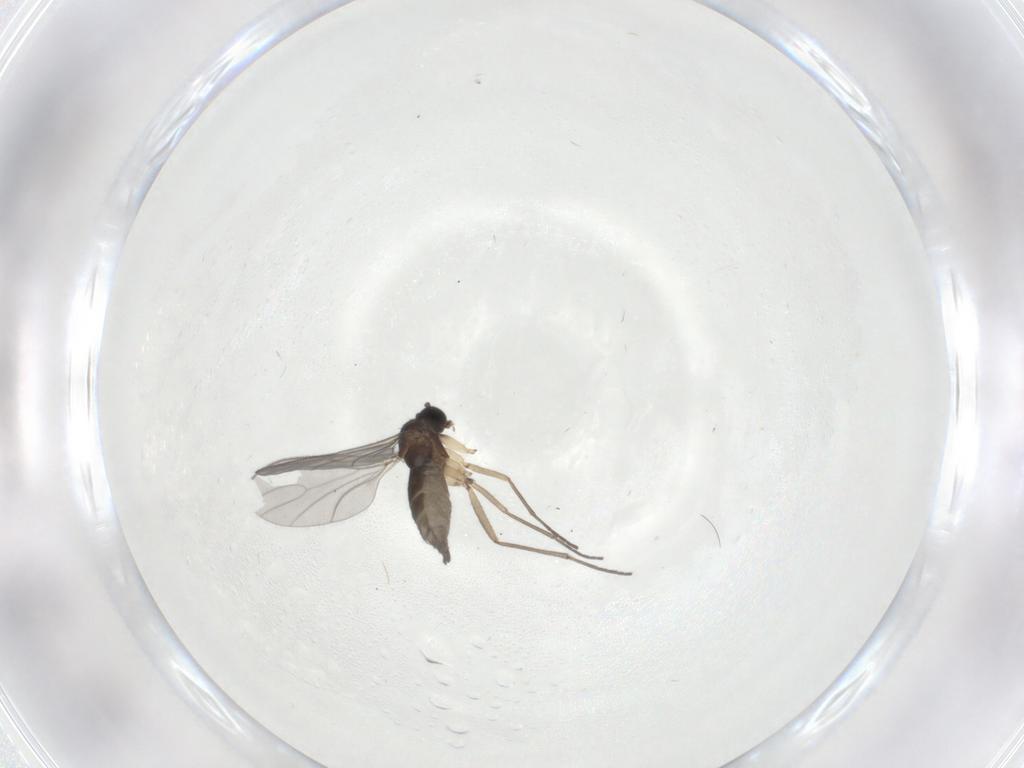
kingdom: Animalia
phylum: Arthropoda
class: Insecta
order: Diptera
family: Sciaridae
